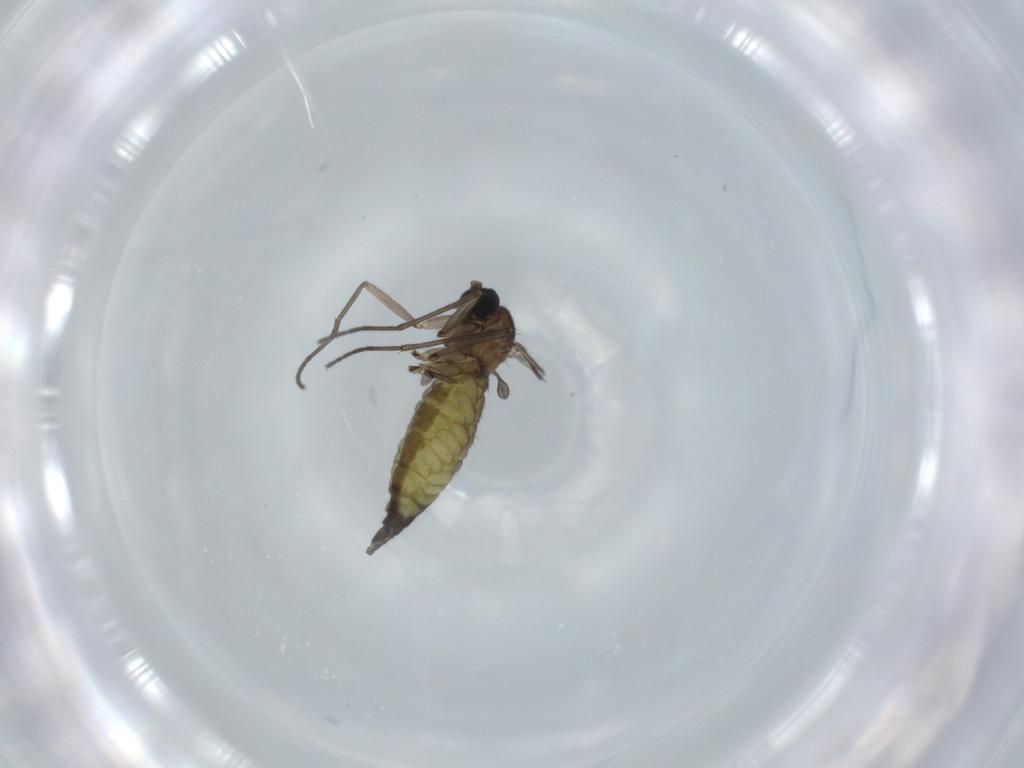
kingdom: Animalia
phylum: Arthropoda
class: Insecta
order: Diptera
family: Sciaridae
